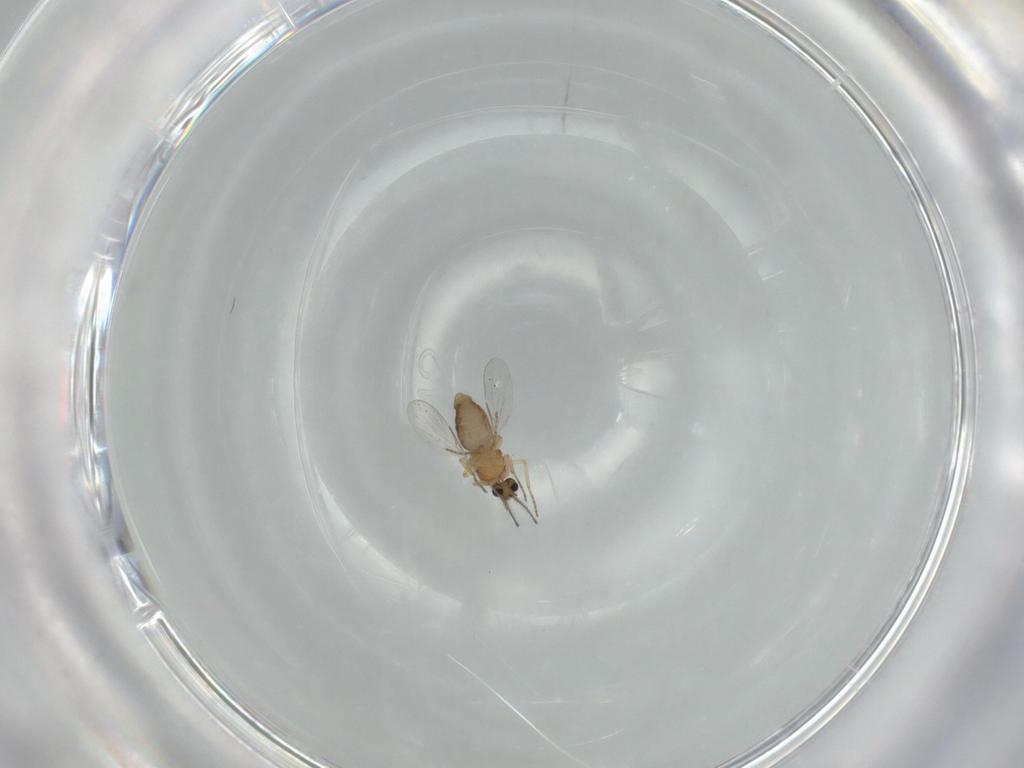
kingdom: Animalia
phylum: Arthropoda
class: Insecta
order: Diptera
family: Ceratopogonidae
